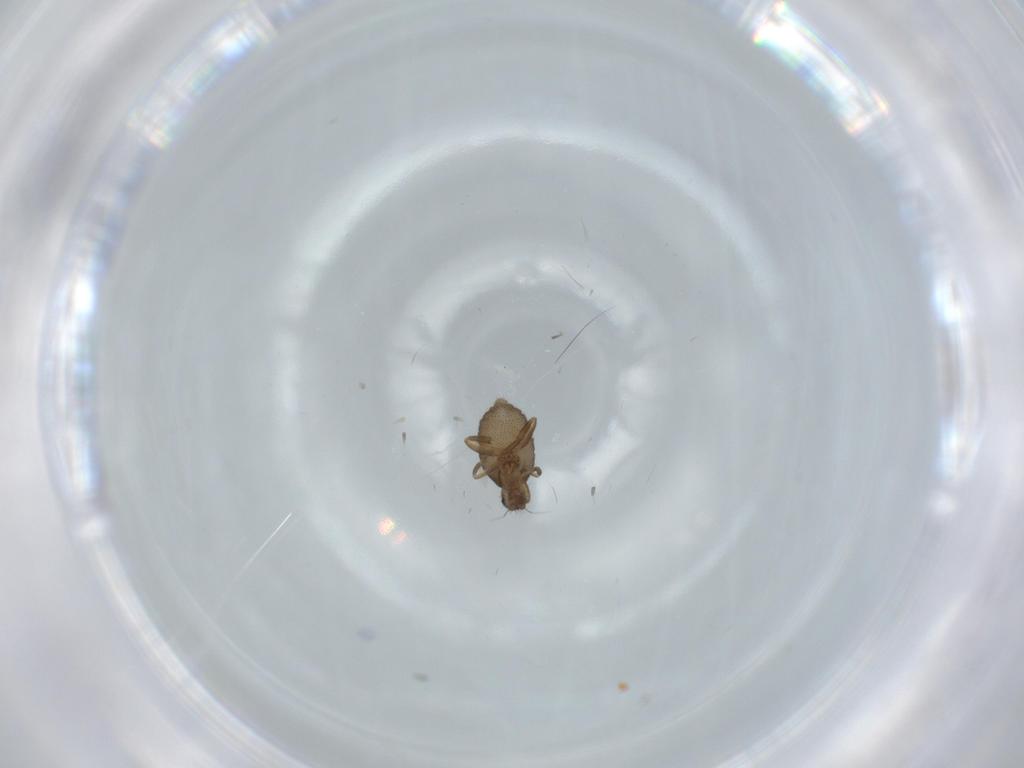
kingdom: Animalia
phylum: Arthropoda
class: Insecta
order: Diptera
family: Phoridae
